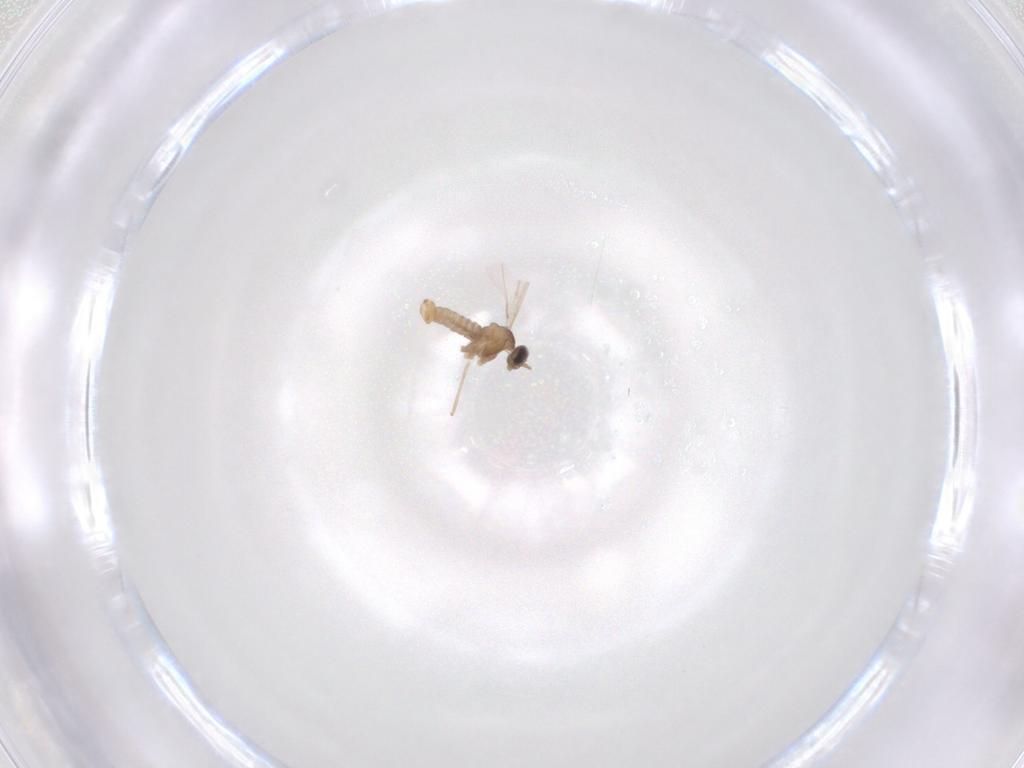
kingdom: Animalia
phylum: Arthropoda
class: Insecta
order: Diptera
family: Cecidomyiidae
